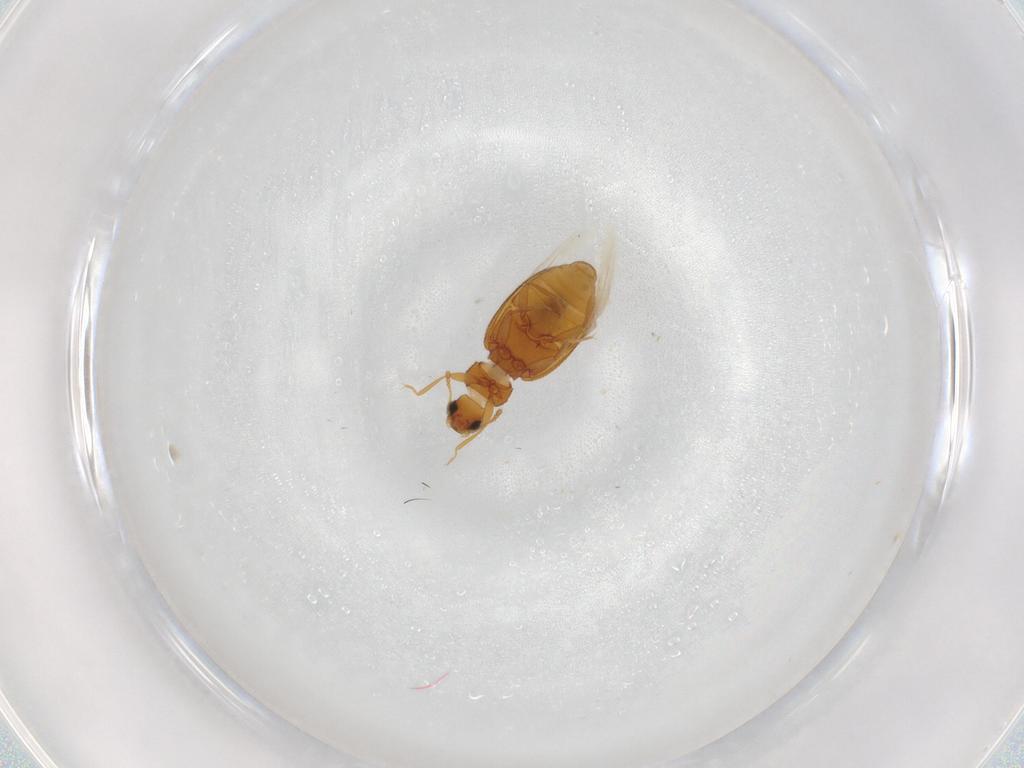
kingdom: Animalia
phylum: Arthropoda
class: Insecta
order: Coleoptera
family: Latridiidae
